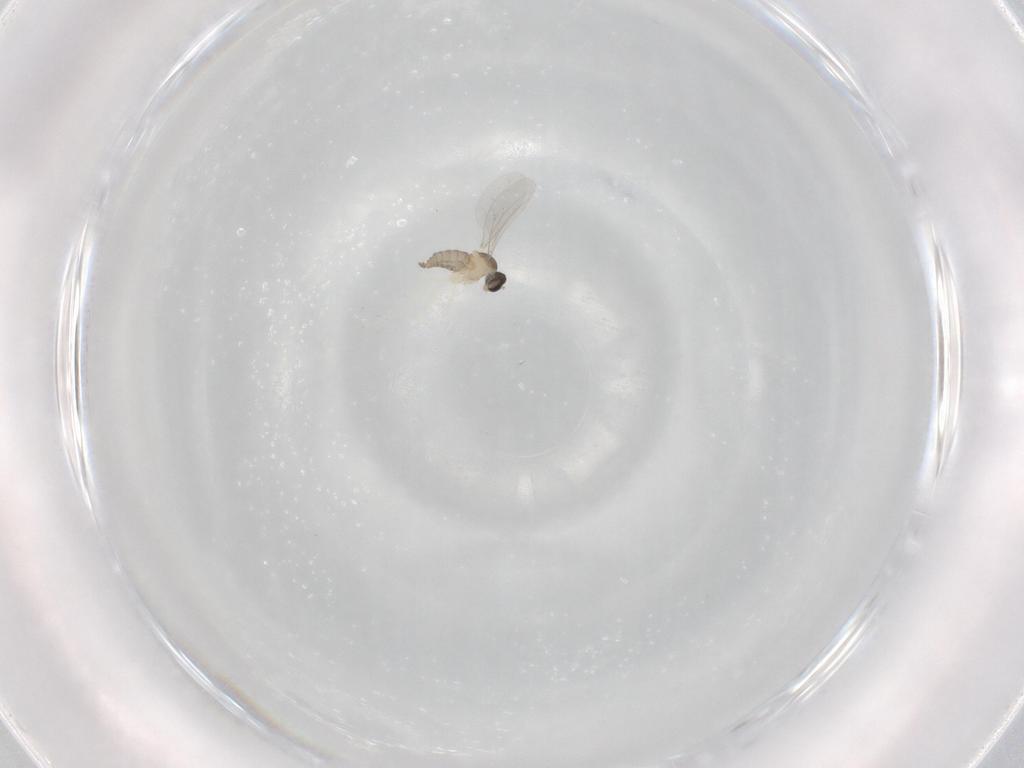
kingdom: Animalia
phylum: Arthropoda
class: Insecta
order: Diptera
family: Cecidomyiidae
